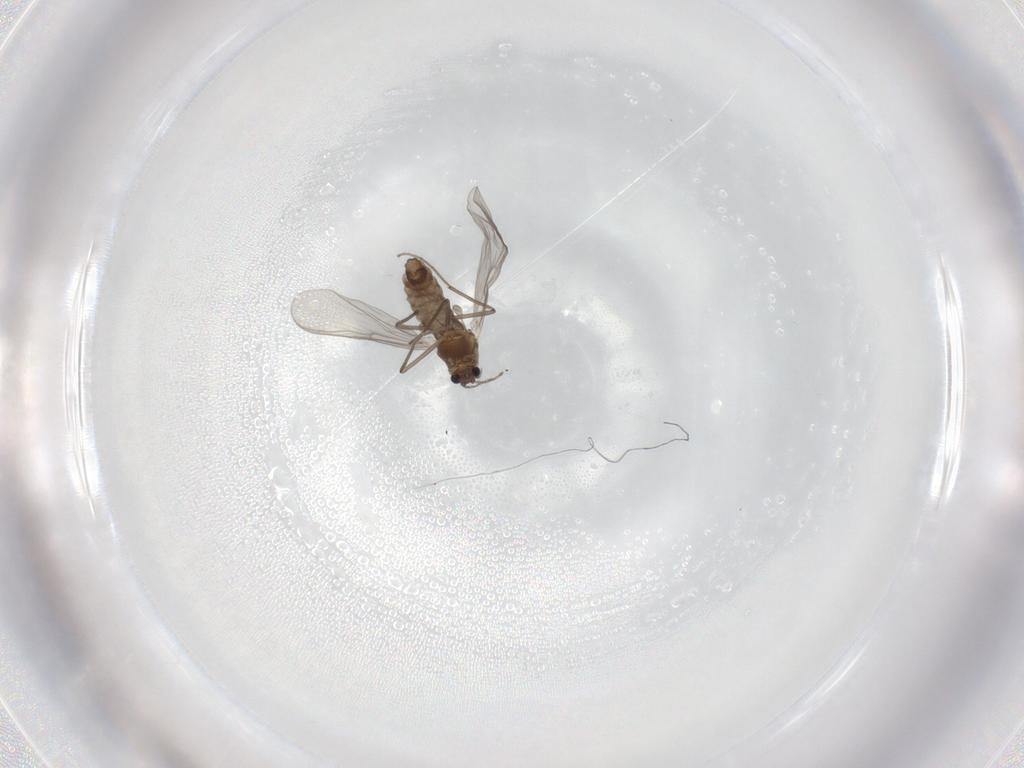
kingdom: Animalia
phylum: Arthropoda
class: Insecta
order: Diptera
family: Chironomidae
